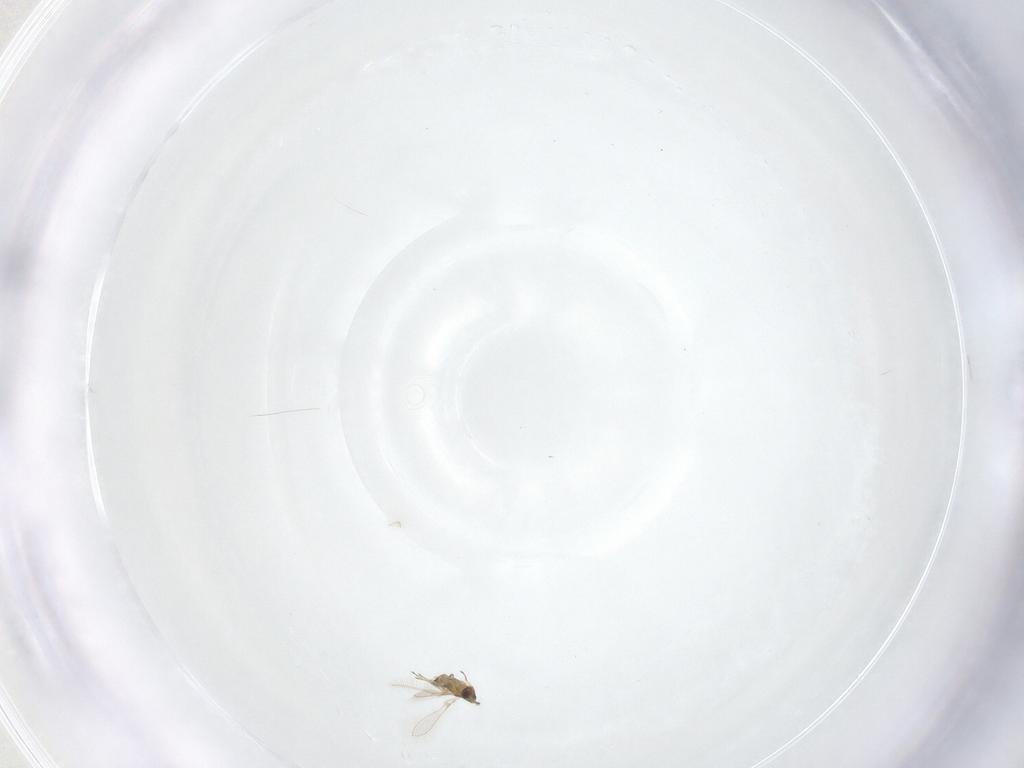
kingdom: Animalia
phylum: Arthropoda
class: Insecta
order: Hymenoptera
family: Mymaridae
